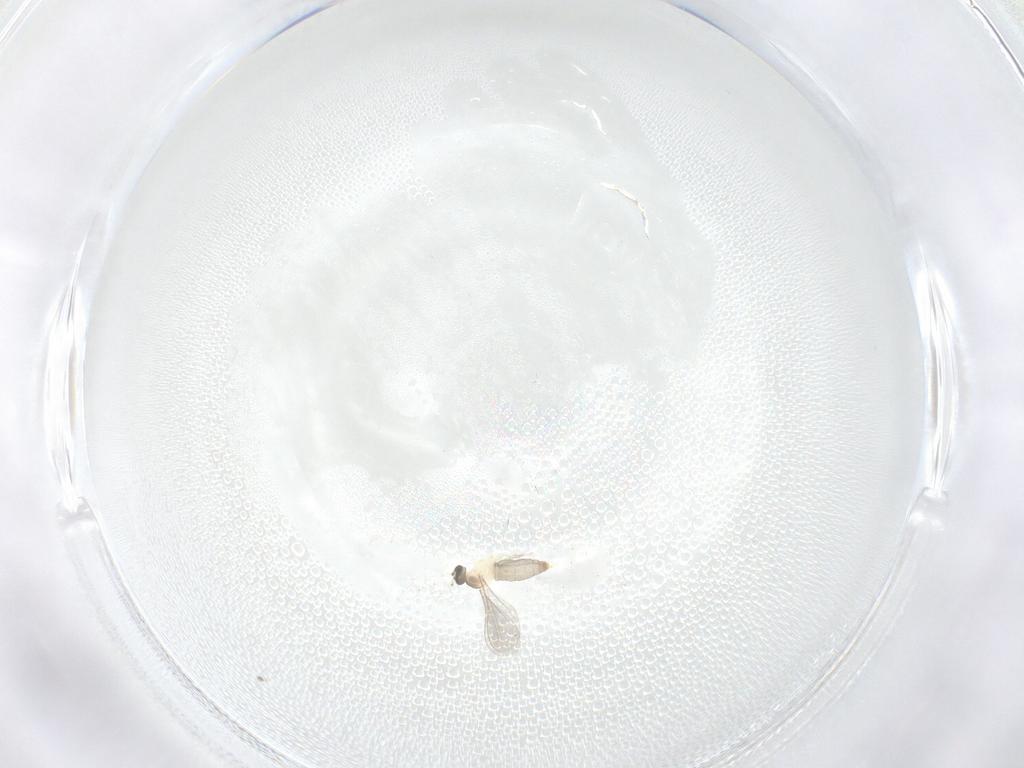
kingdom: Animalia
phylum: Arthropoda
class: Insecta
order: Diptera
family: Cecidomyiidae
